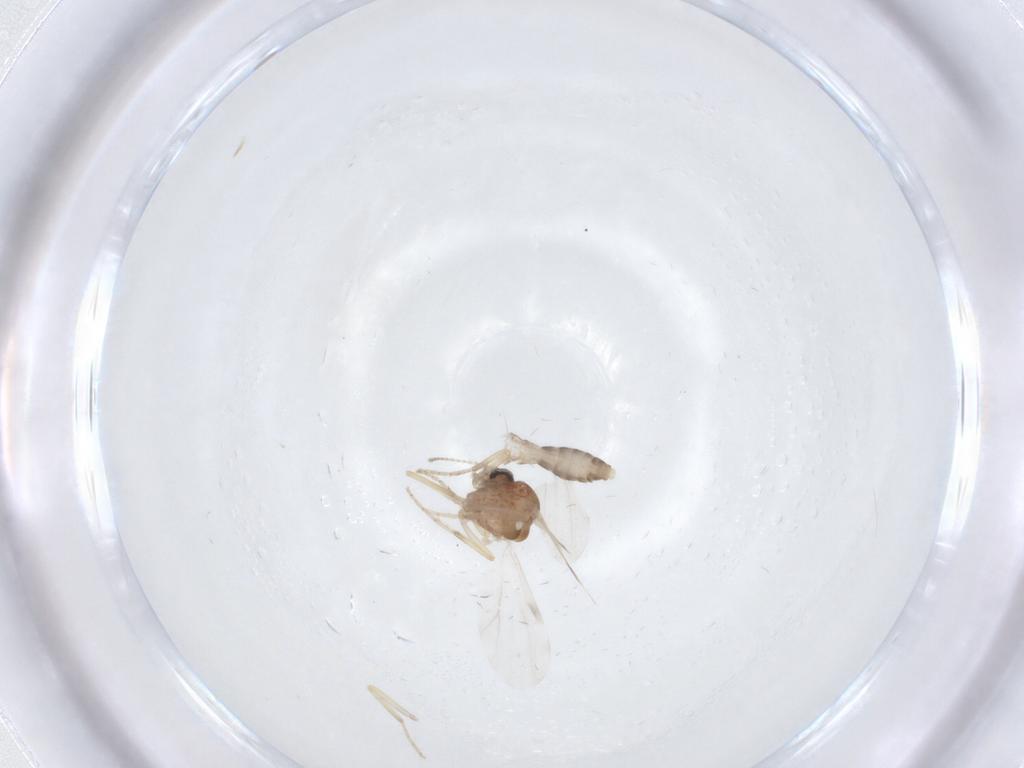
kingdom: Animalia
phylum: Arthropoda
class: Insecta
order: Diptera
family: Ceratopogonidae
